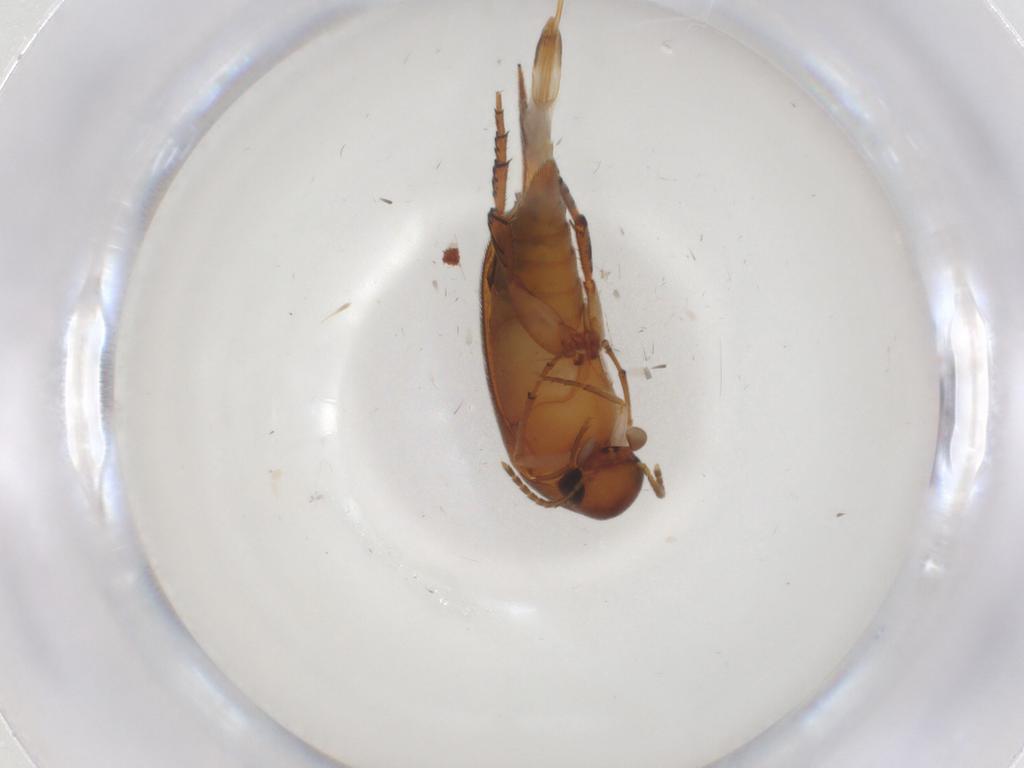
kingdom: Animalia
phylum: Arthropoda
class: Insecta
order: Coleoptera
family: Mordellidae
